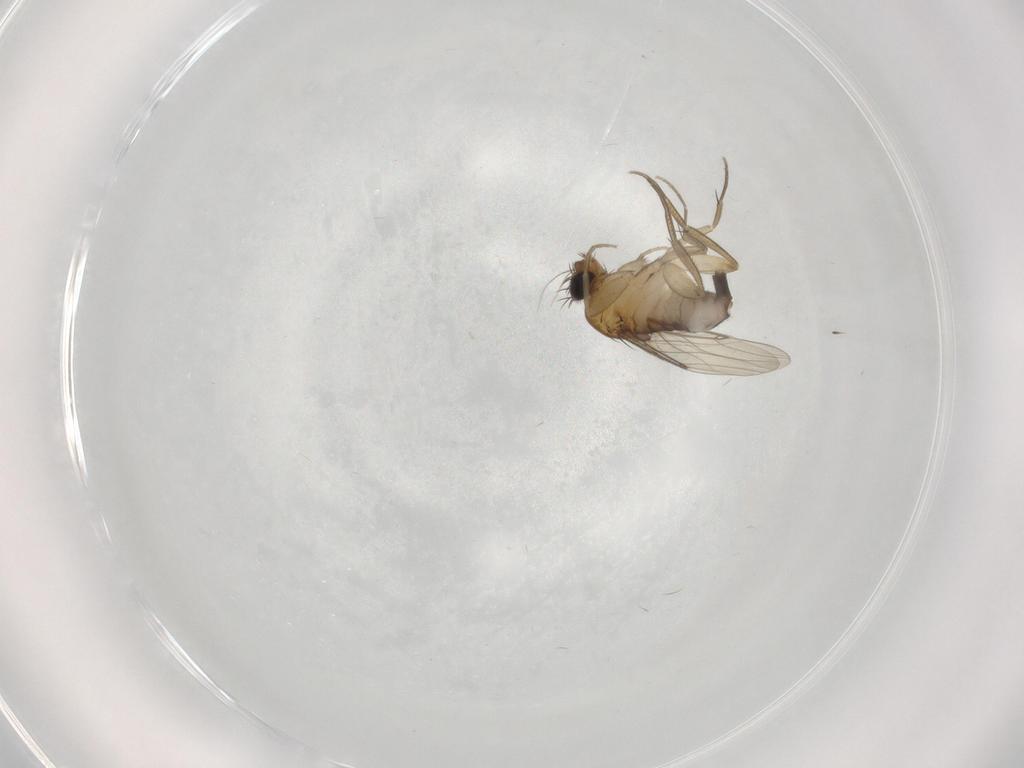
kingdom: Animalia
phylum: Arthropoda
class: Insecta
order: Diptera
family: Phoridae
